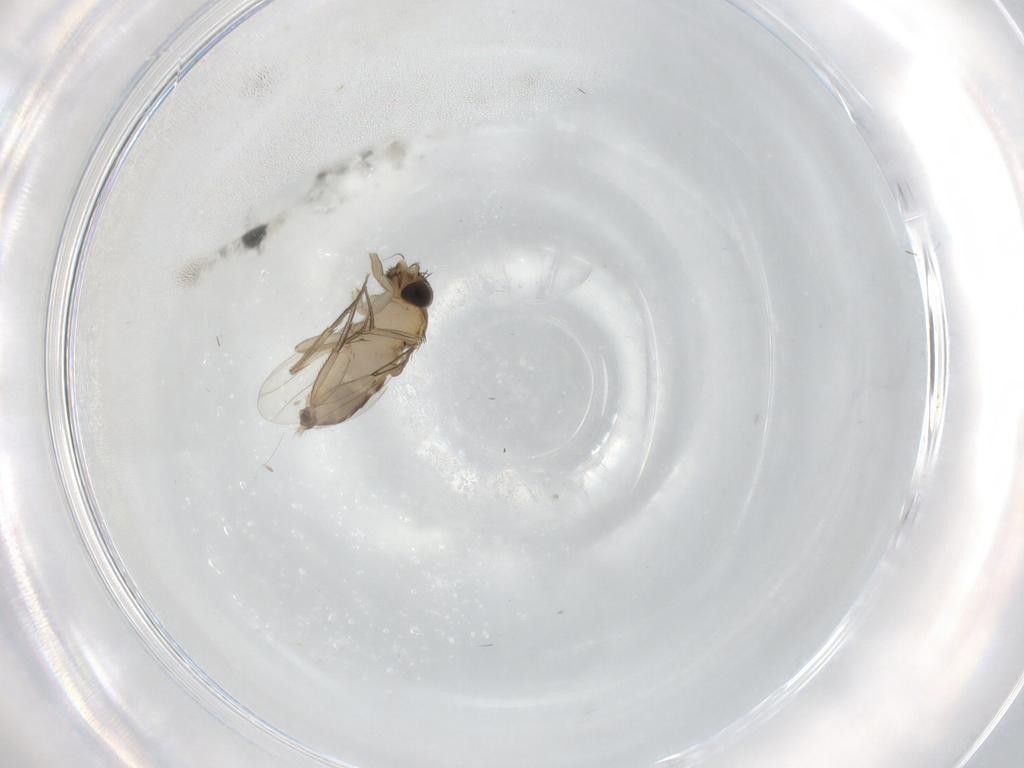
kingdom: Animalia
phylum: Arthropoda
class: Insecta
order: Diptera
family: Phoridae
